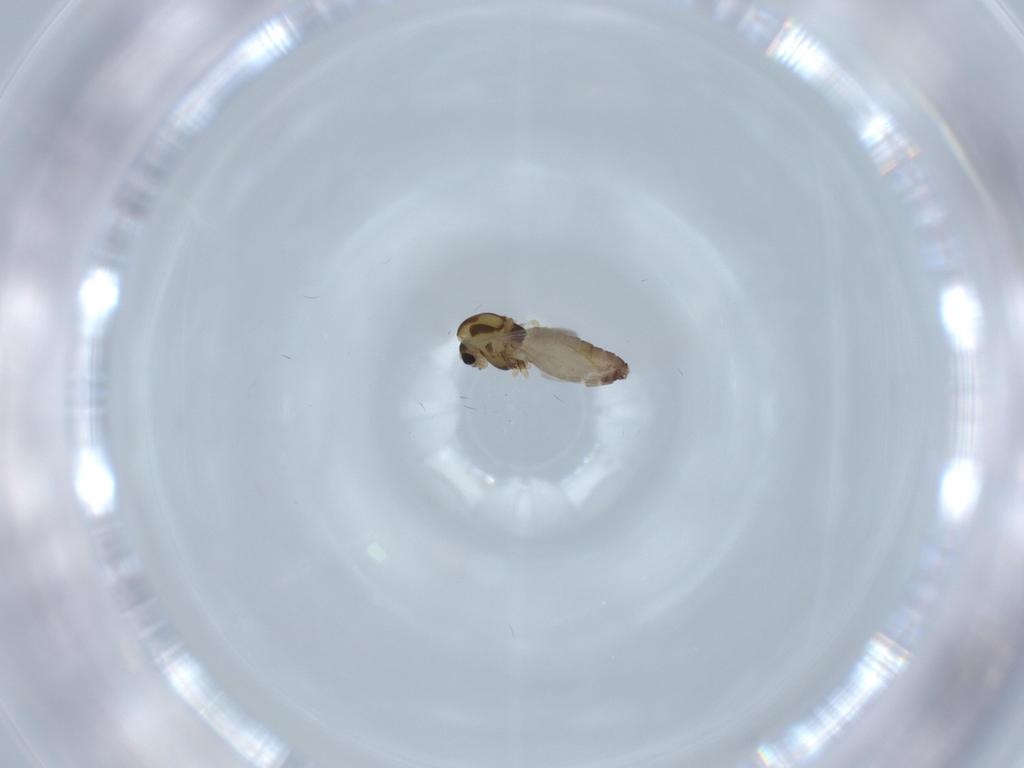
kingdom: Animalia
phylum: Arthropoda
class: Insecta
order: Diptera
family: Chironomidae
